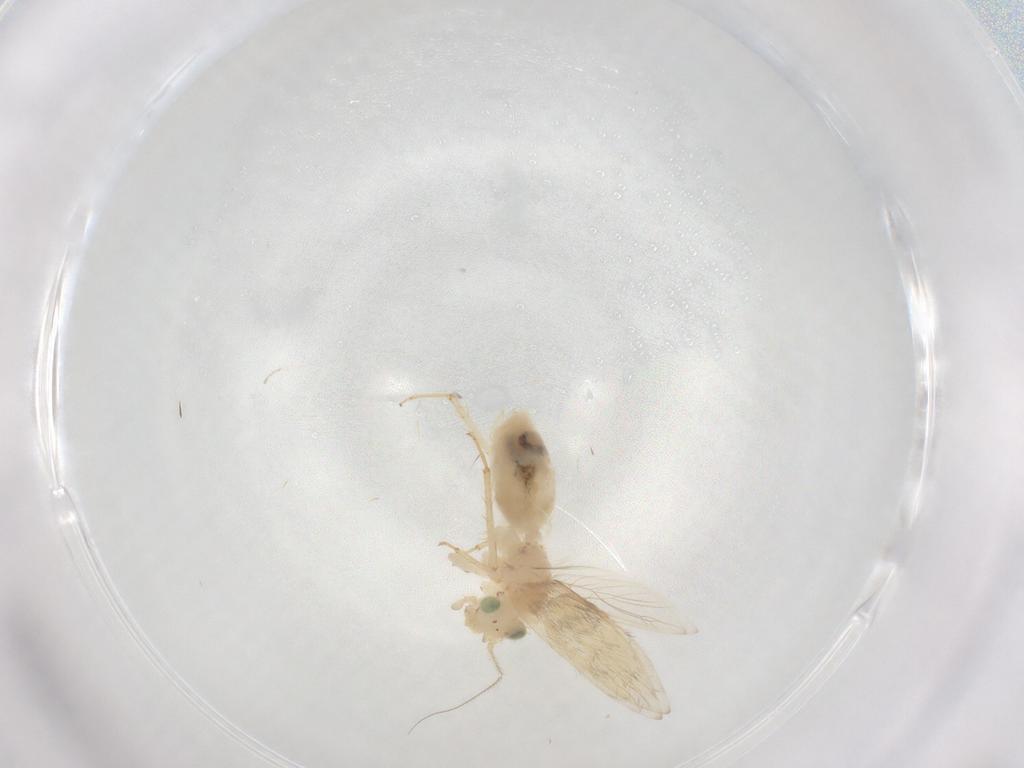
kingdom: Animalia
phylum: Arthropoda
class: Insecta
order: Psocodea
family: Lepidopsocidae
